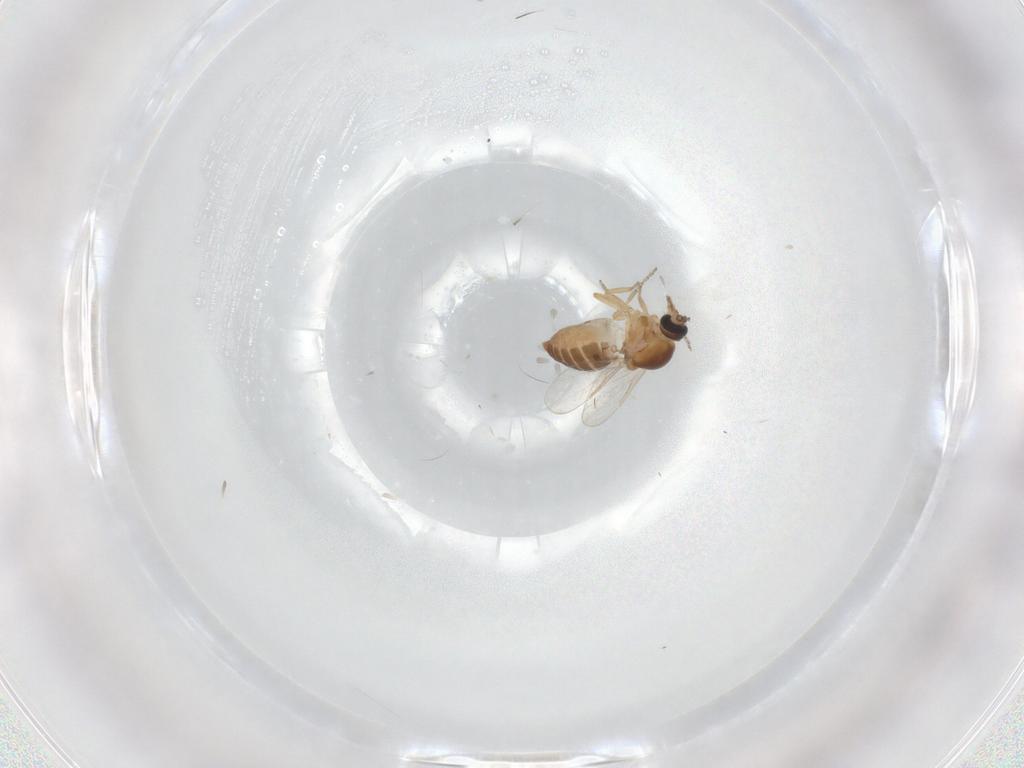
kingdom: Animalia
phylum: Arthropoda
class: Insecta
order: Diptera
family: Ceratopogonidae
